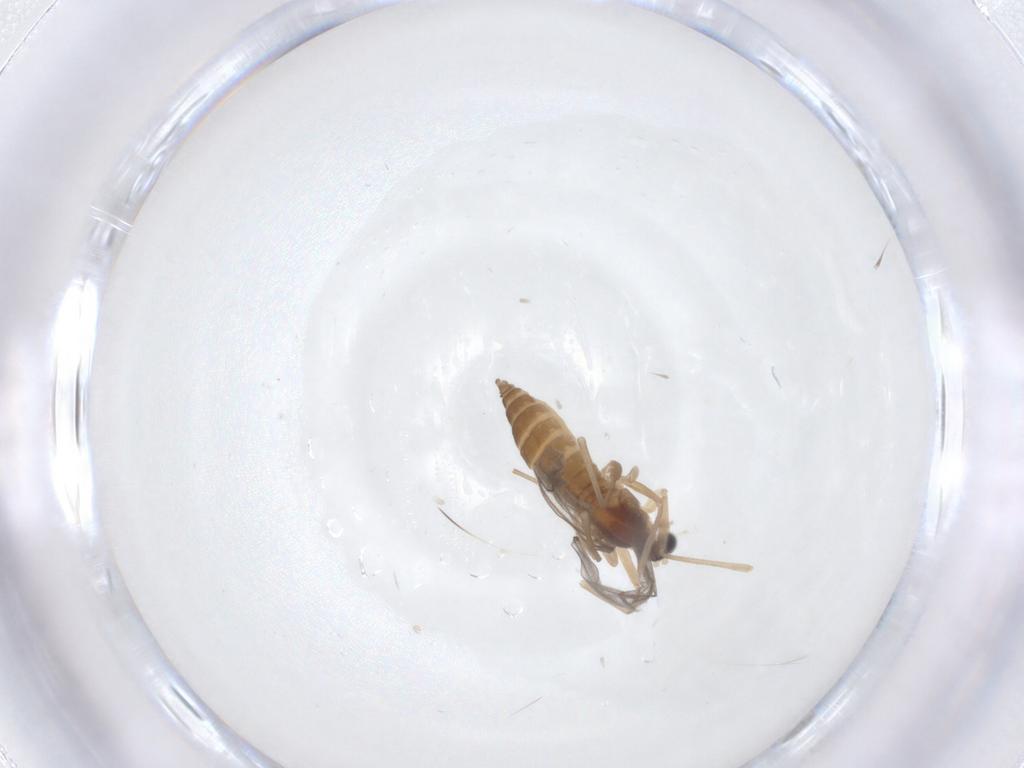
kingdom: Animalia
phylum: Arthropoda
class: Insecta
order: Diptera
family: Cecidomyiidae
